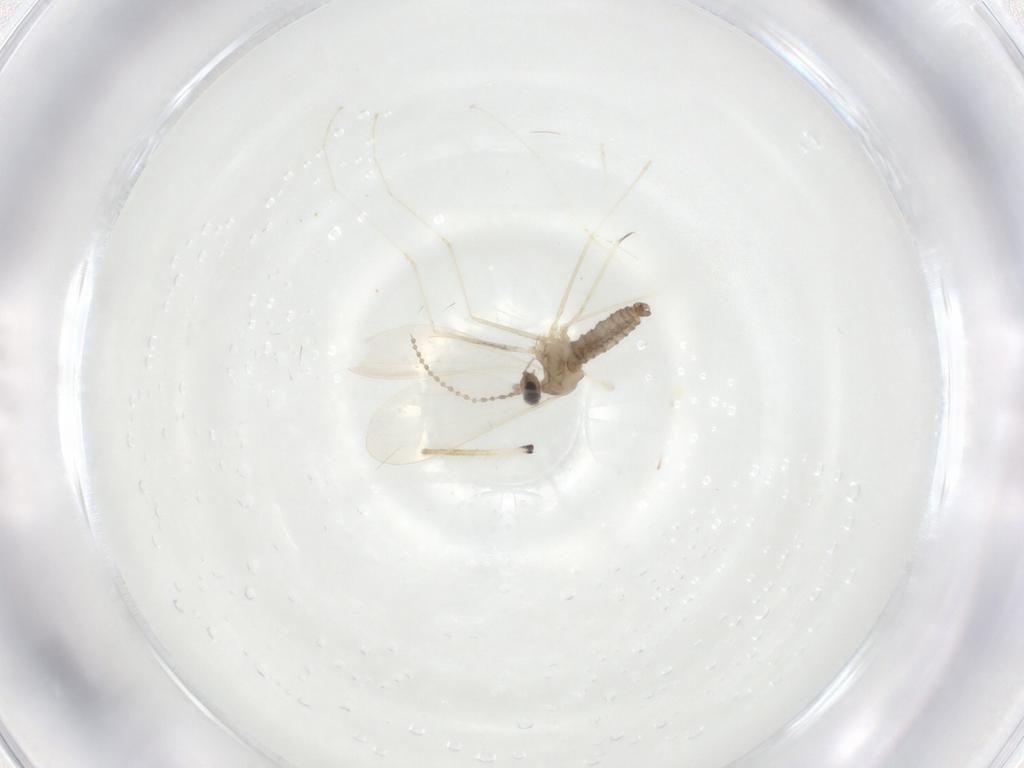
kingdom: Animalia
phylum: Arthropoda
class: Insecta
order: Diptera
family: Cecidomyiidae
